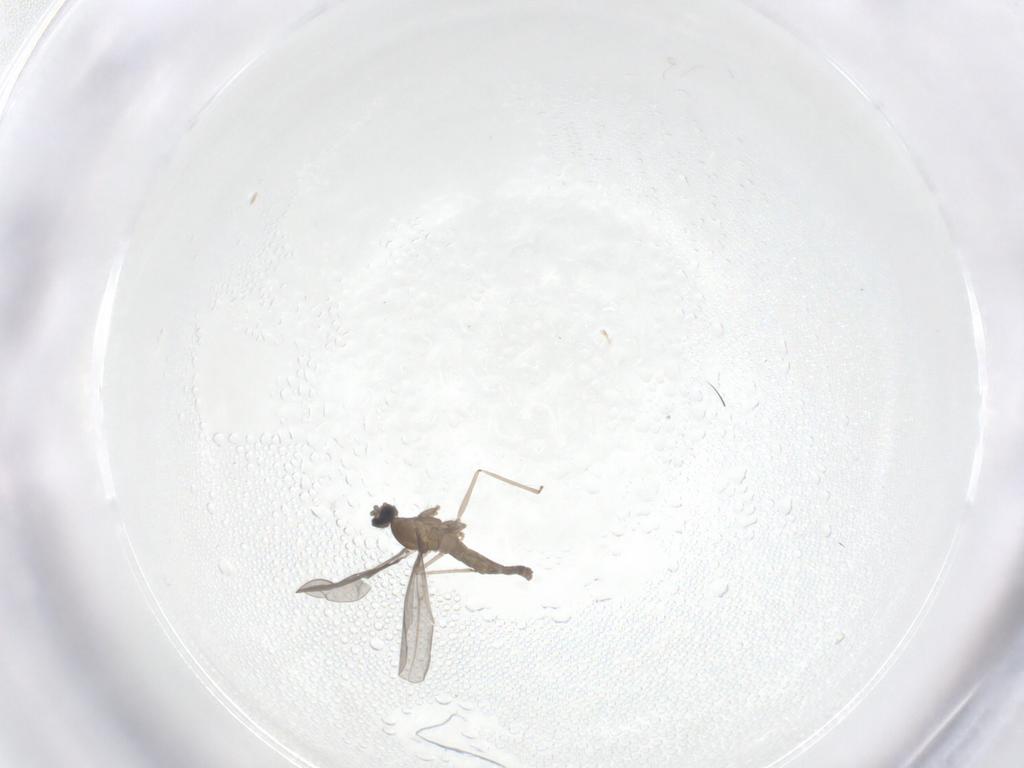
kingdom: Animalia
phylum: Arthropoda
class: Insecta
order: Diptera
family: Cecidomyiidae
